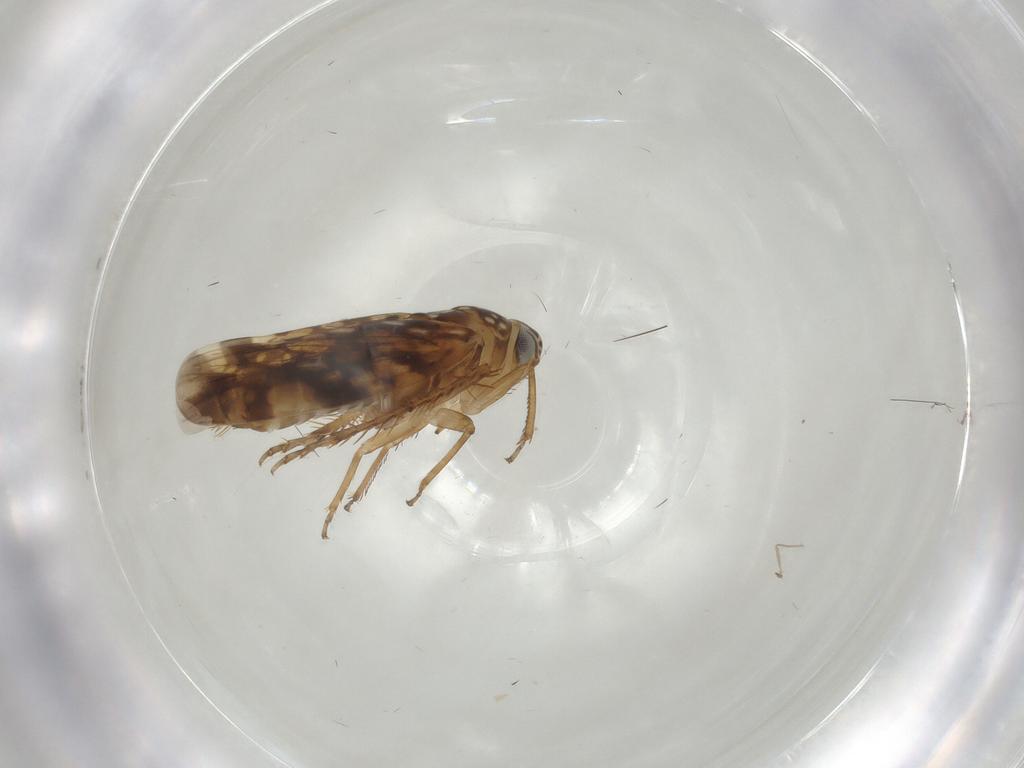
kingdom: Animalia
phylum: Arthropoda
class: Insecta
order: Hemiptera
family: Cicadellidae
